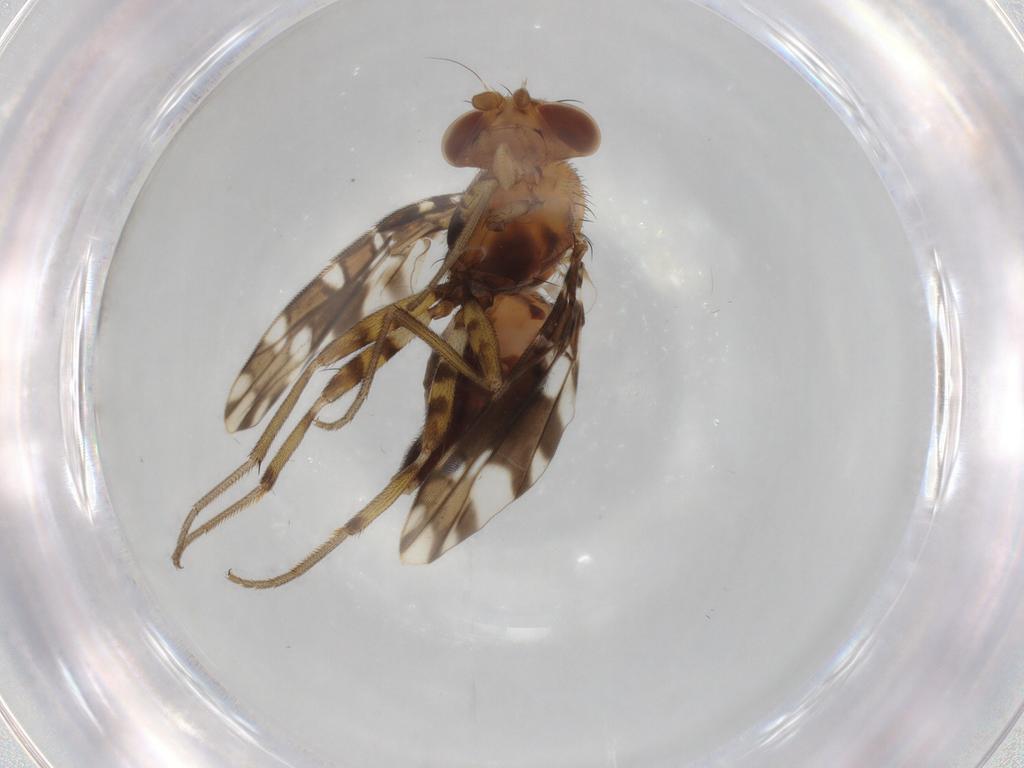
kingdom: Animalia
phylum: Arthropoda
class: Insecta
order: Diptera
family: Ulidiidae
